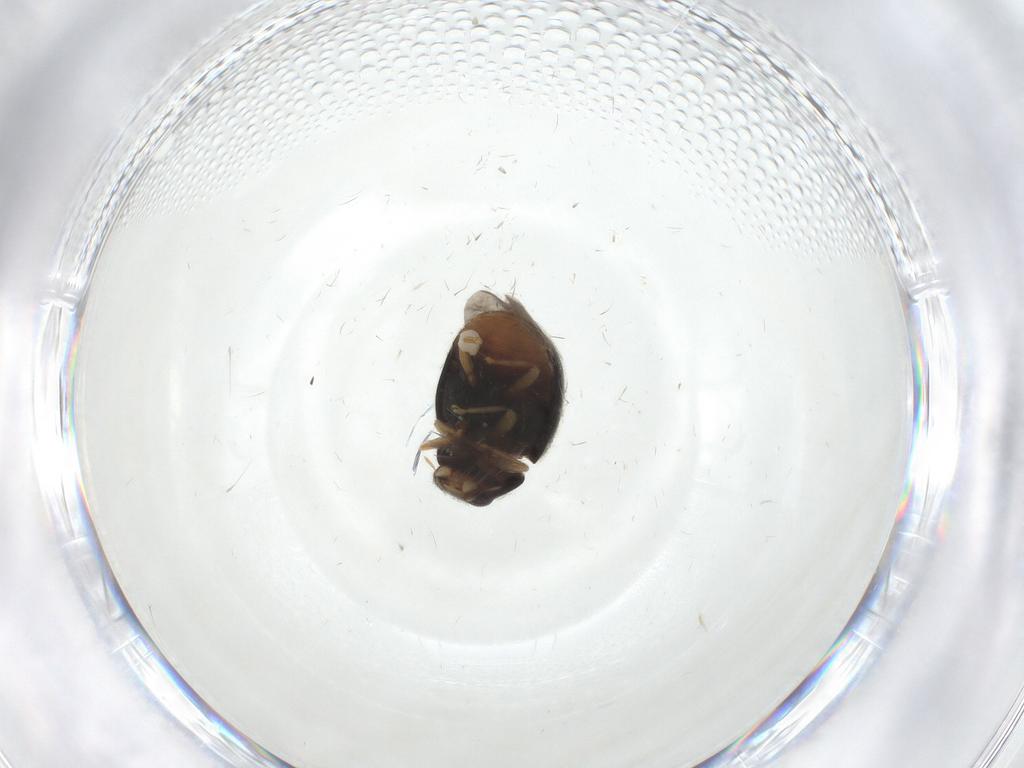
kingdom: Animalia
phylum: Arthropoda
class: Insecta
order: Coleoptera
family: Coccinellidae
